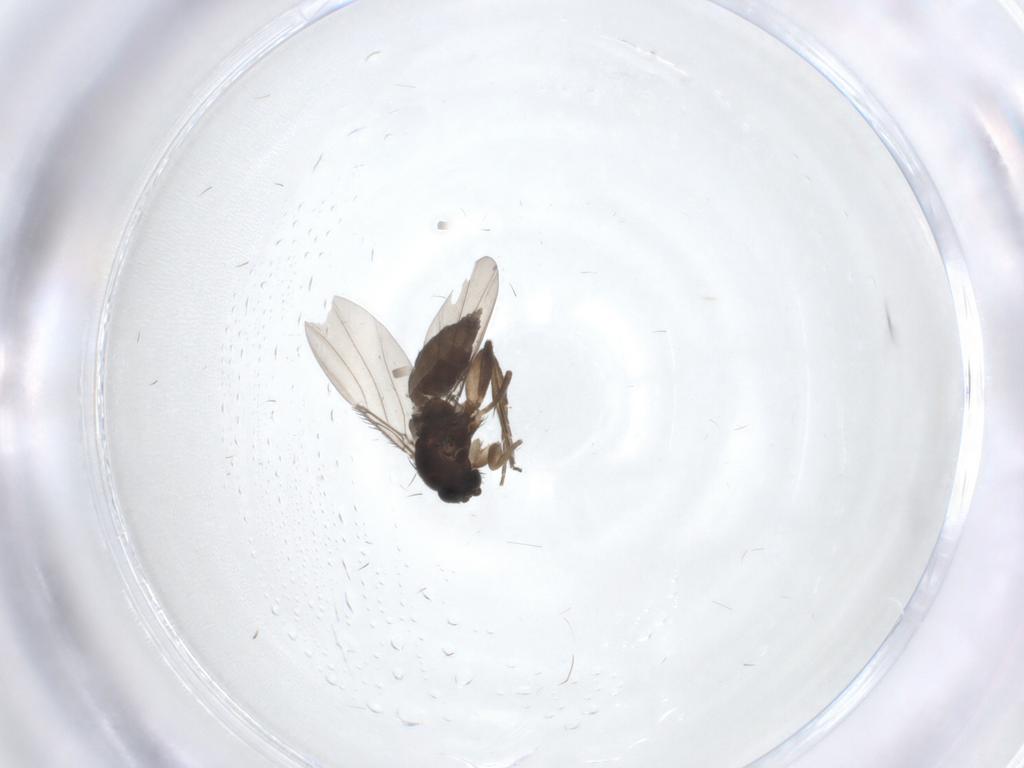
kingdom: Animalia
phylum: Arthropoda
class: Insecta
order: Diptera
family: Phoridae
